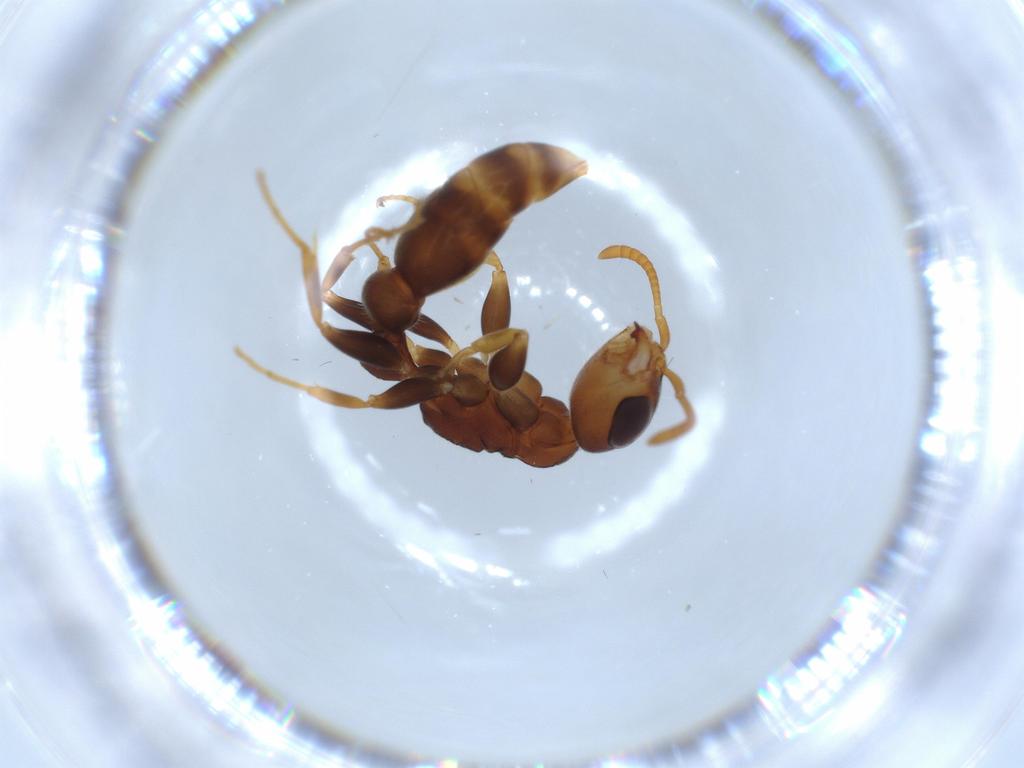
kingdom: Animalia
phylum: Arthropoda
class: Insecta
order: Hymenoptera
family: Formicidae
